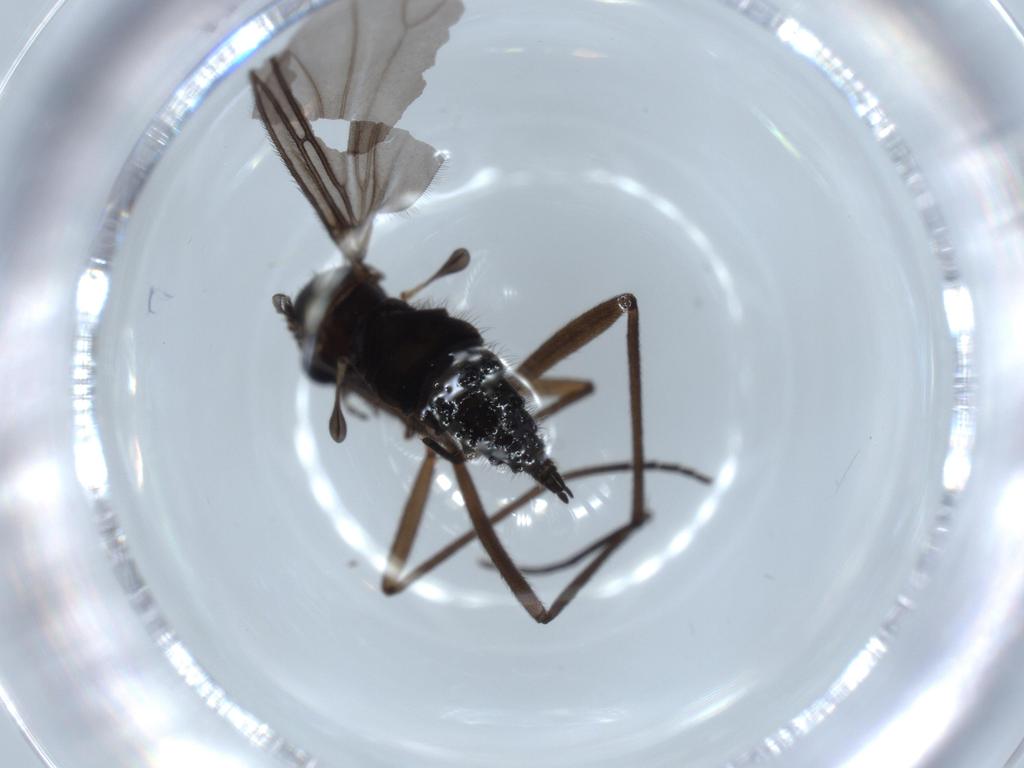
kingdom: Animalia
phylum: Arthropoda
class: Insecta
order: Diptera
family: Sciaridae
